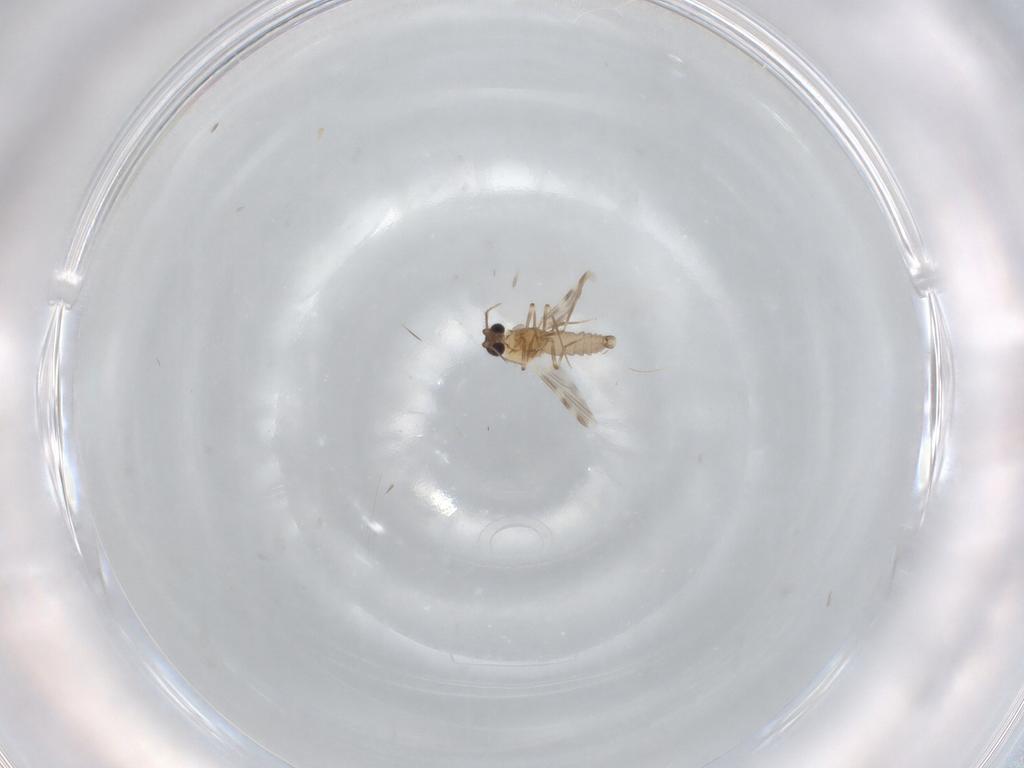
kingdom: Animalia
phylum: Arthropoda
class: Insecta
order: Diptera
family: Ceratopogonidae
